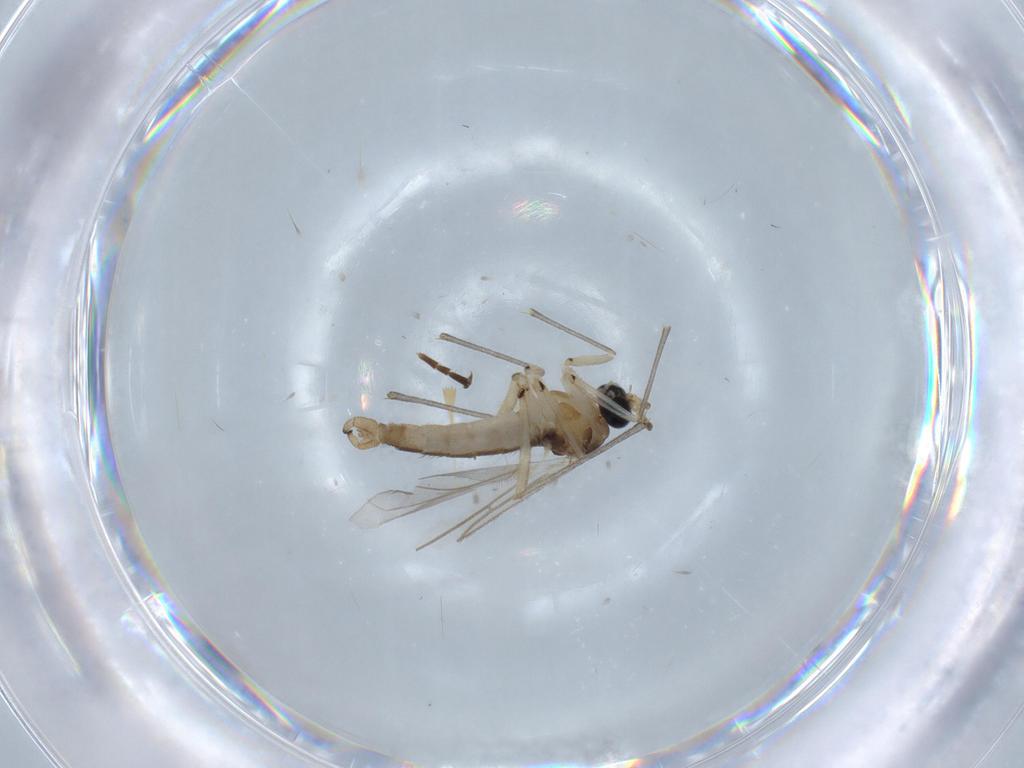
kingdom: Animalia
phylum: Arthropoda
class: Insecta
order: Diptera
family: Sciaridae
